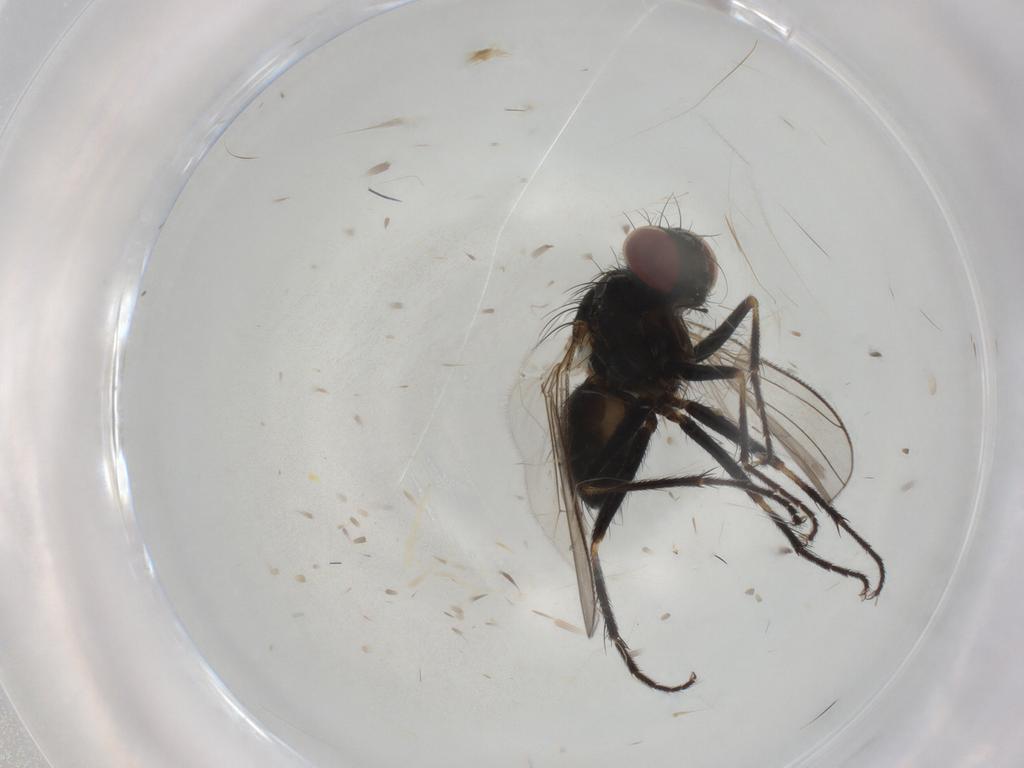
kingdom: Animalia
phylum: Arthropoda
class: Insecta
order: Diptera
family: Muscidae
